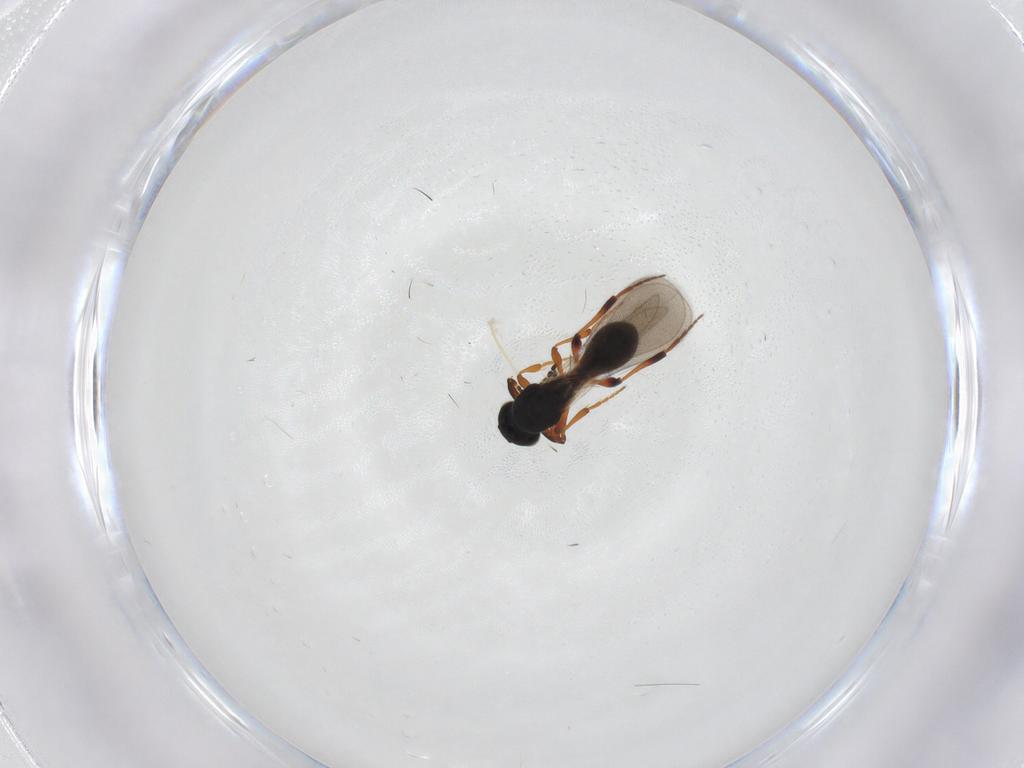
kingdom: Animalia
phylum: Arthropoda
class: Insecta
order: Hymenoptera
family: Platygastridae
